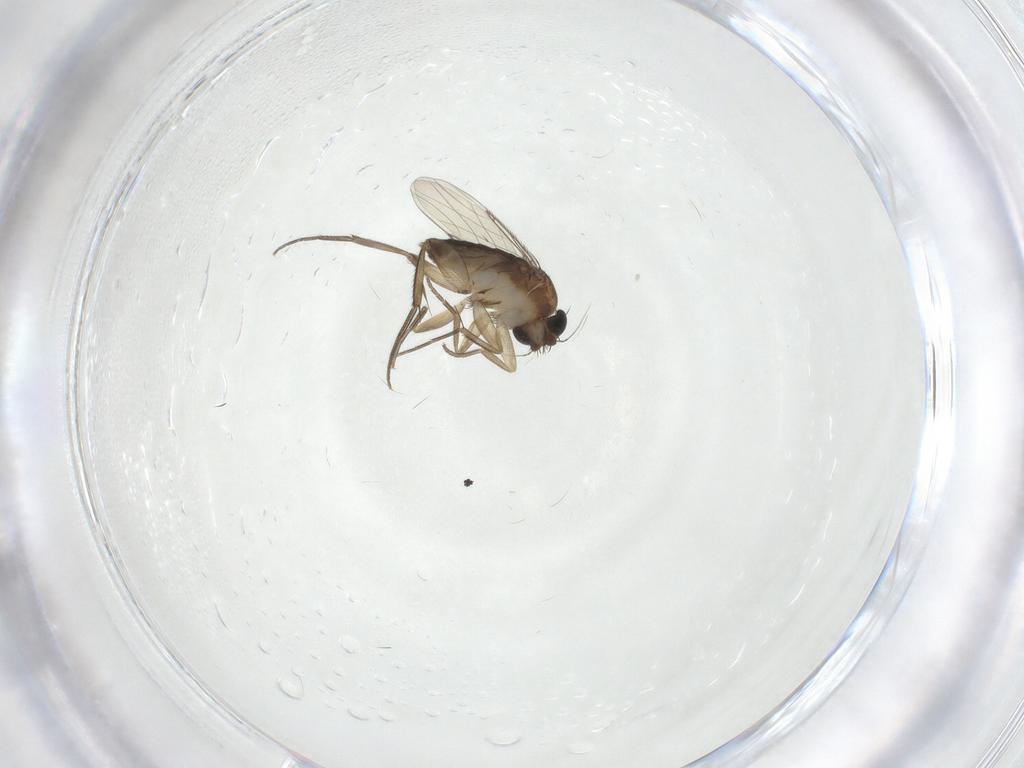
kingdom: Animalia
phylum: Arthropoda
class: Insecta
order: Diptera
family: Phoridae
